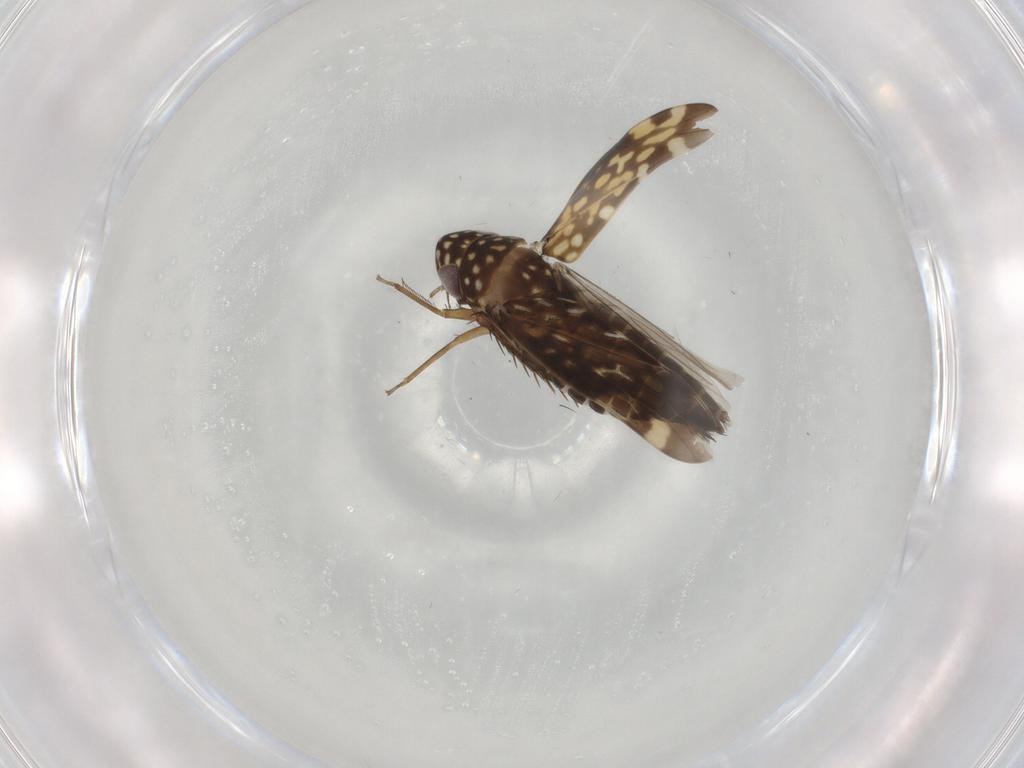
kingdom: Animalia
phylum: Arthropoda
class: Insecta
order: Hemiptera
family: Cicadellidae
